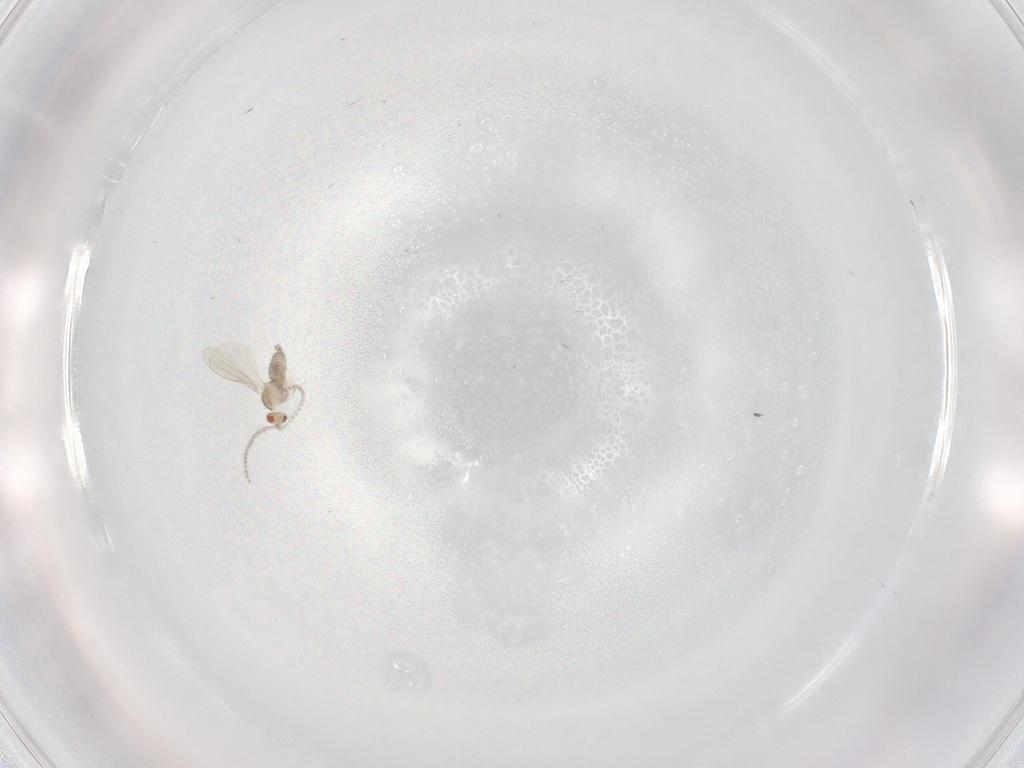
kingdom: Animalia
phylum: Arthropoda
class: Insecta
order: Diptera
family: Cecidomyiidae
